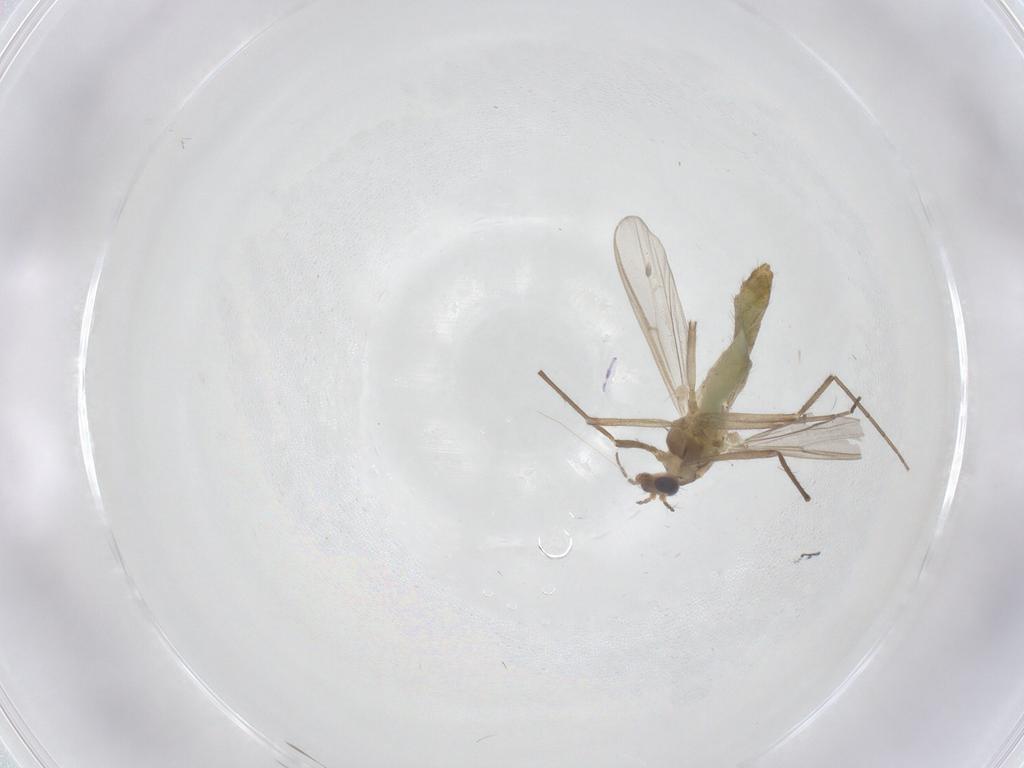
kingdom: Animalia
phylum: Arthropoda
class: Insecta
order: Diptera
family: Chironomidae
